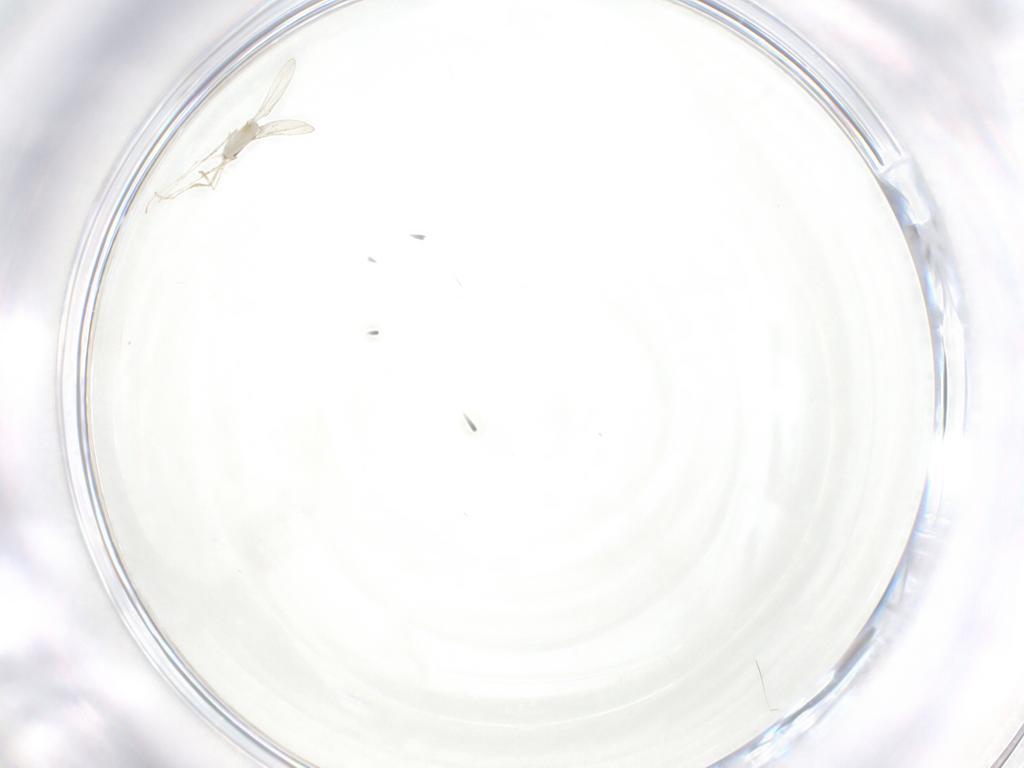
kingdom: Animalia
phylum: Arthropoda
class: Insecta
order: Diptera
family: Cecidomyiidae
